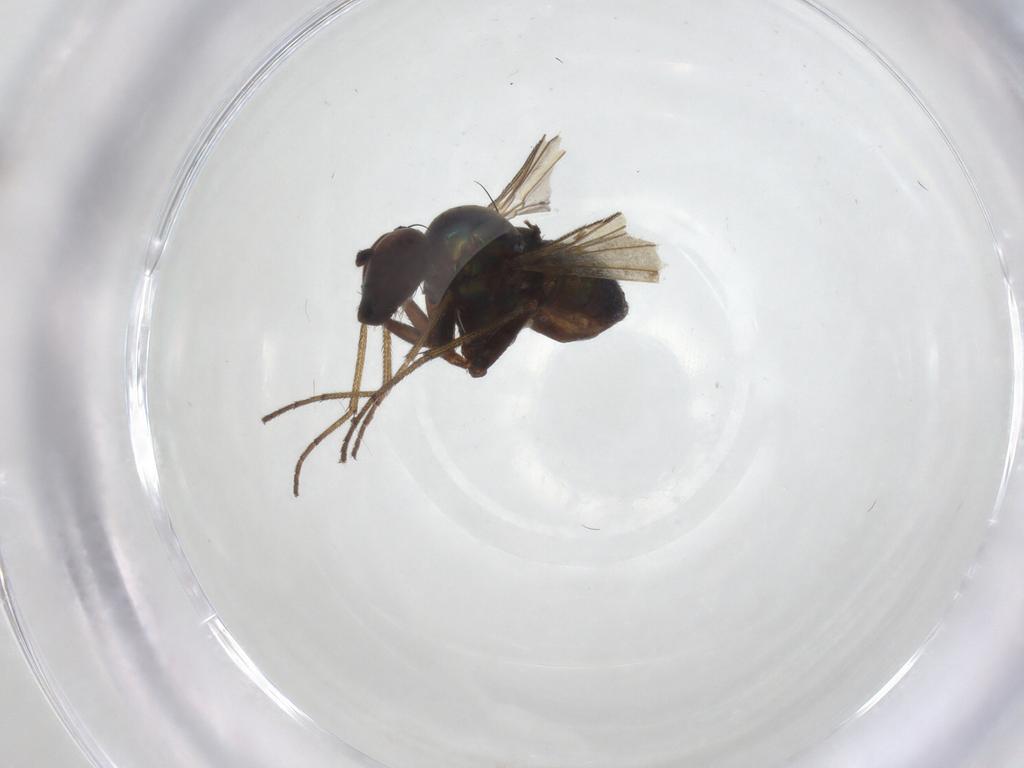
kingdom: Animalia
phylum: Arthropoda
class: Insecta
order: Diptera
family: Dolichopodidae
